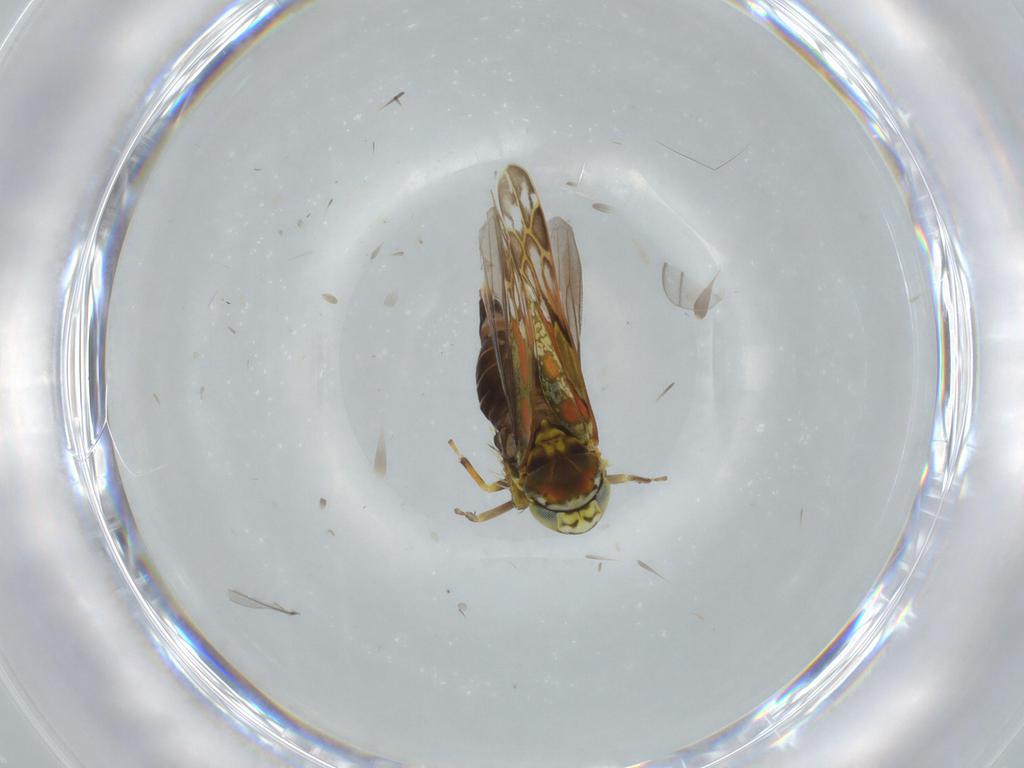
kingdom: Animalia
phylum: Arthropoda
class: Insecta
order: Hemiptera
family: Cicadellidae
